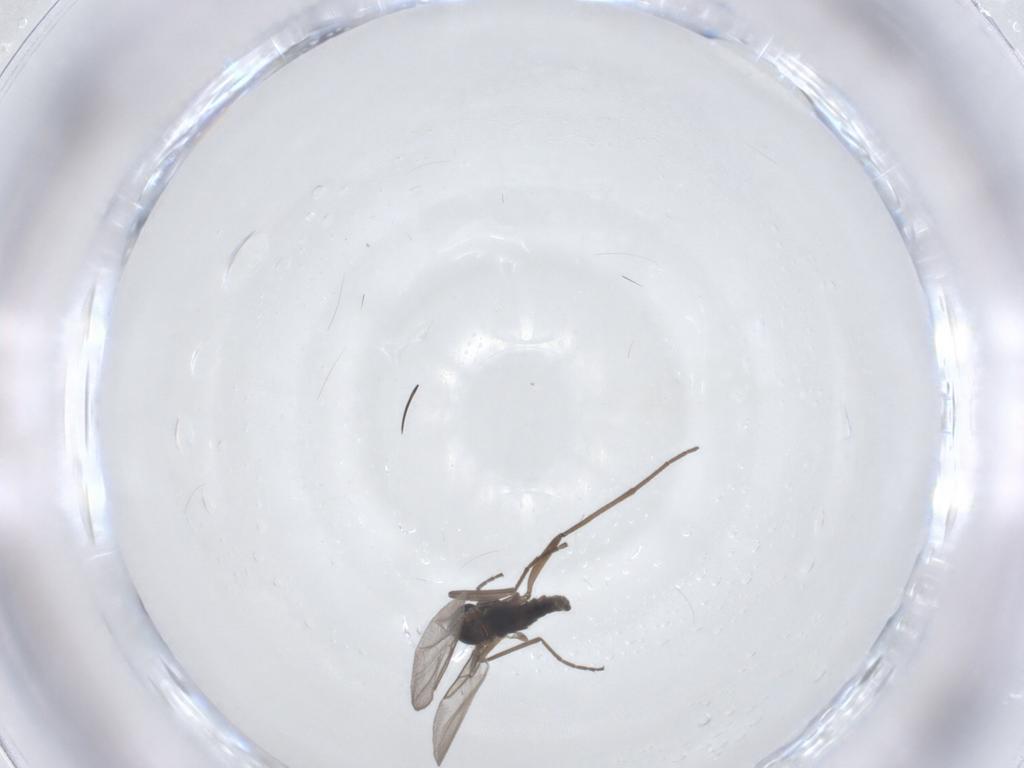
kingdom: Animalia
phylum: Arthropoda
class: Insecta
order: Diptera
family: Cecidomyiidae
